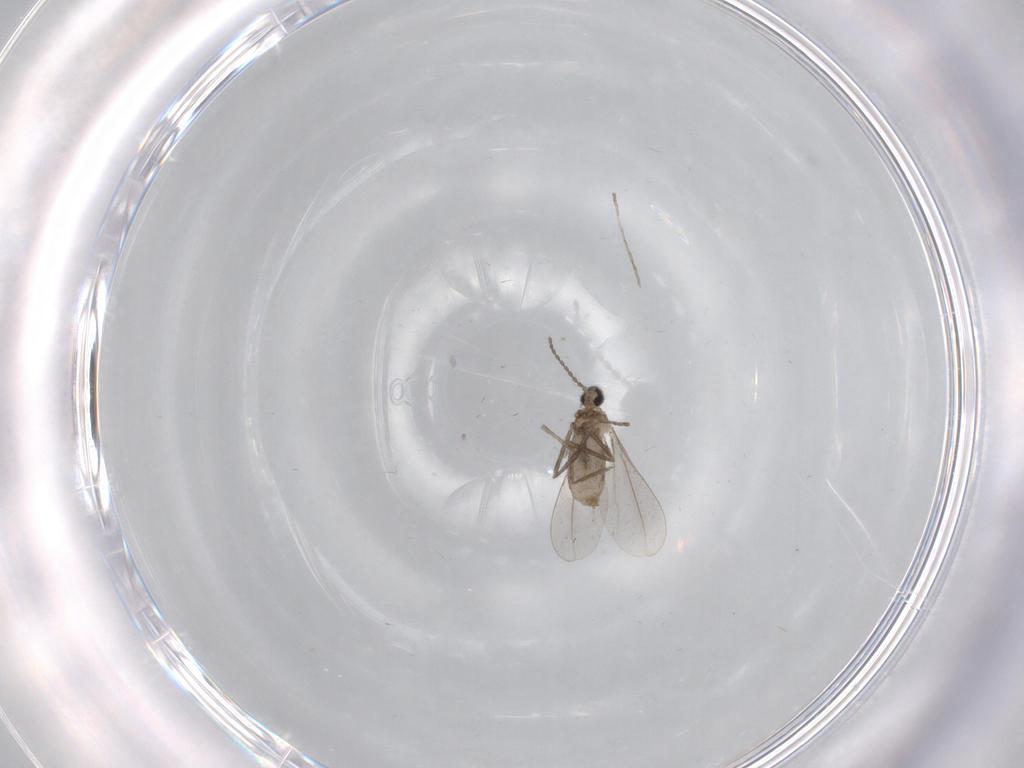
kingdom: Animalia
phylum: Arthropoda
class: Insecta
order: Diptera
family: Cecidomyiidae
